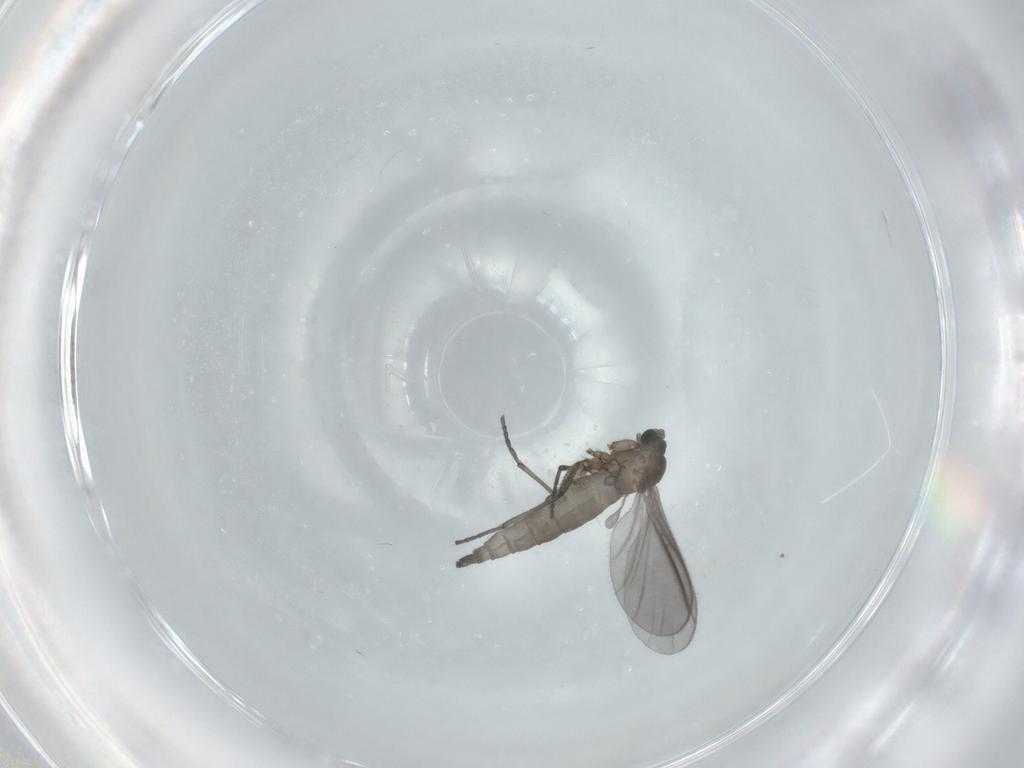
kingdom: Animalia
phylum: Arthropoda
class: Insecta
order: Diptera
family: Sciaridae
